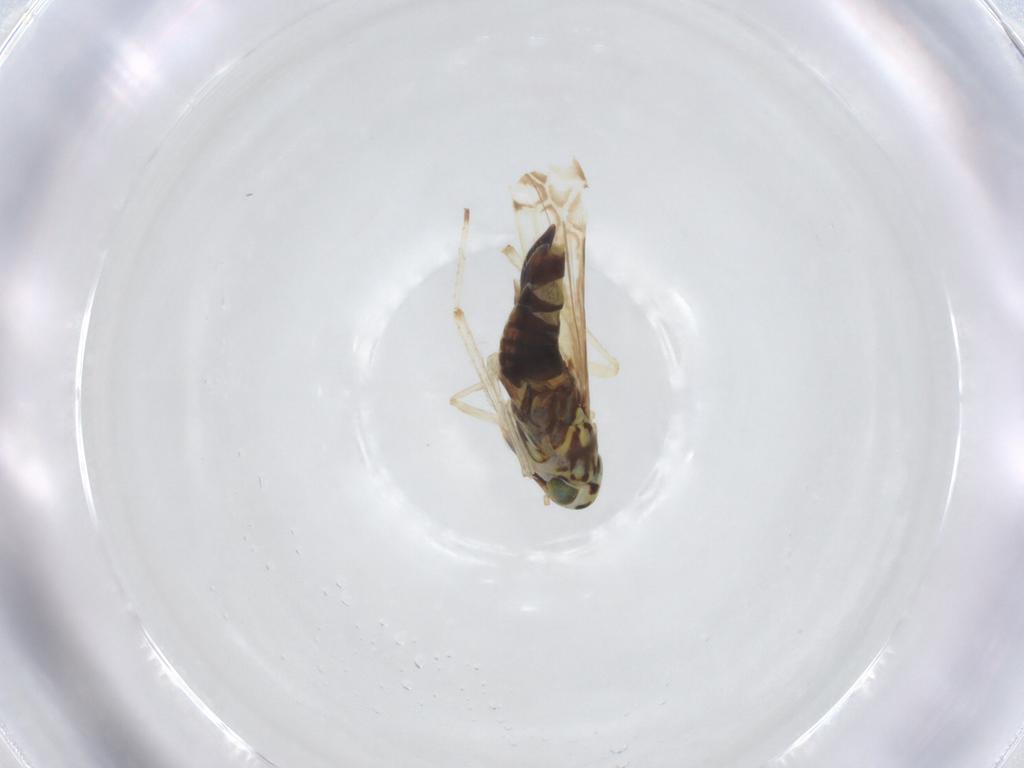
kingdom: Animalia
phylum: Arthropoda
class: Insecta
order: Hemiptera
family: Cicadellidae
